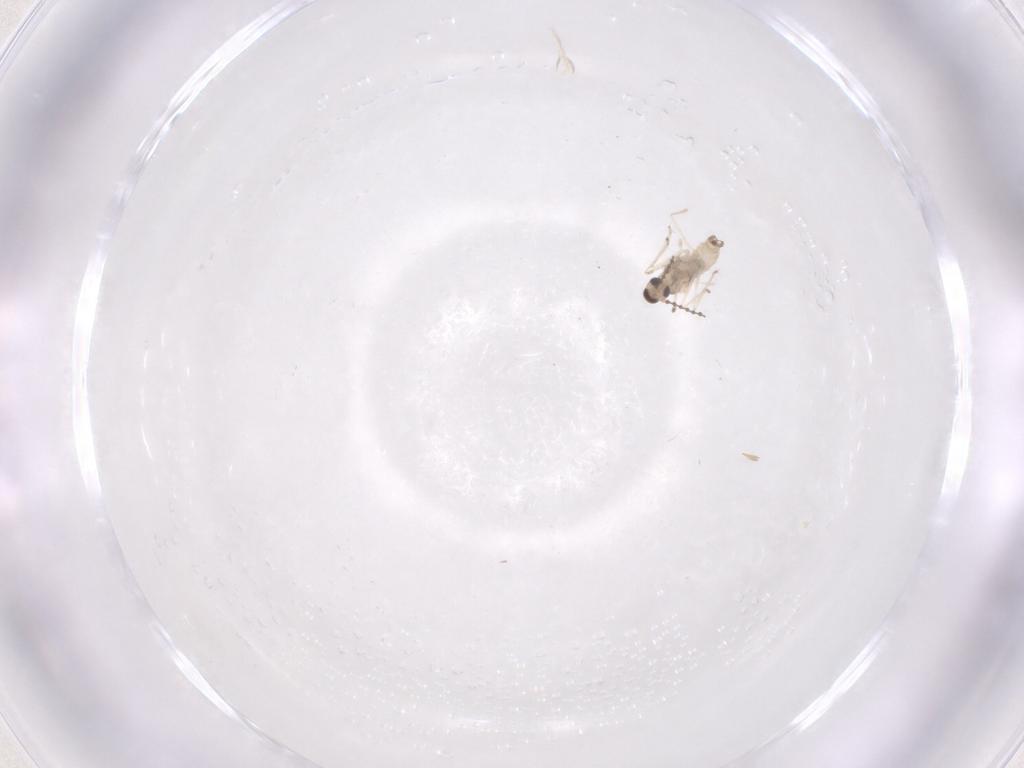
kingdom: Animalia
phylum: Arthropoda
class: Insecta
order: Diptera
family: Cecidomyiidae
